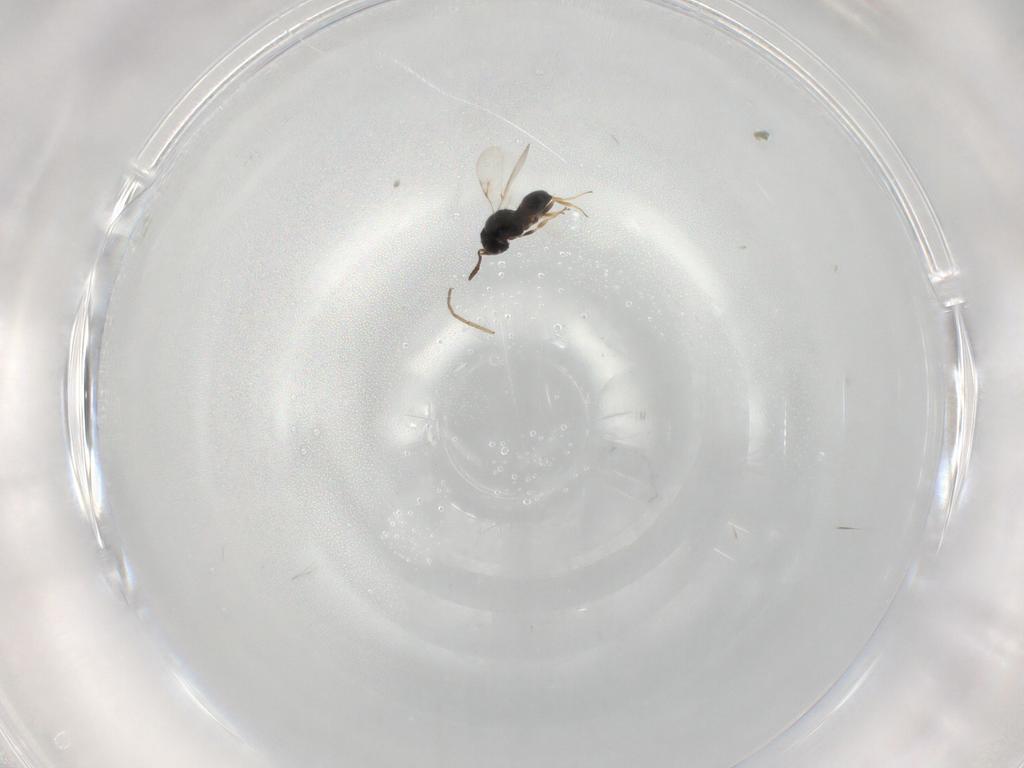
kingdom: Animalia
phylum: Arthropoda
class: Insecta
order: Hymenoptera
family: Scelionidae
